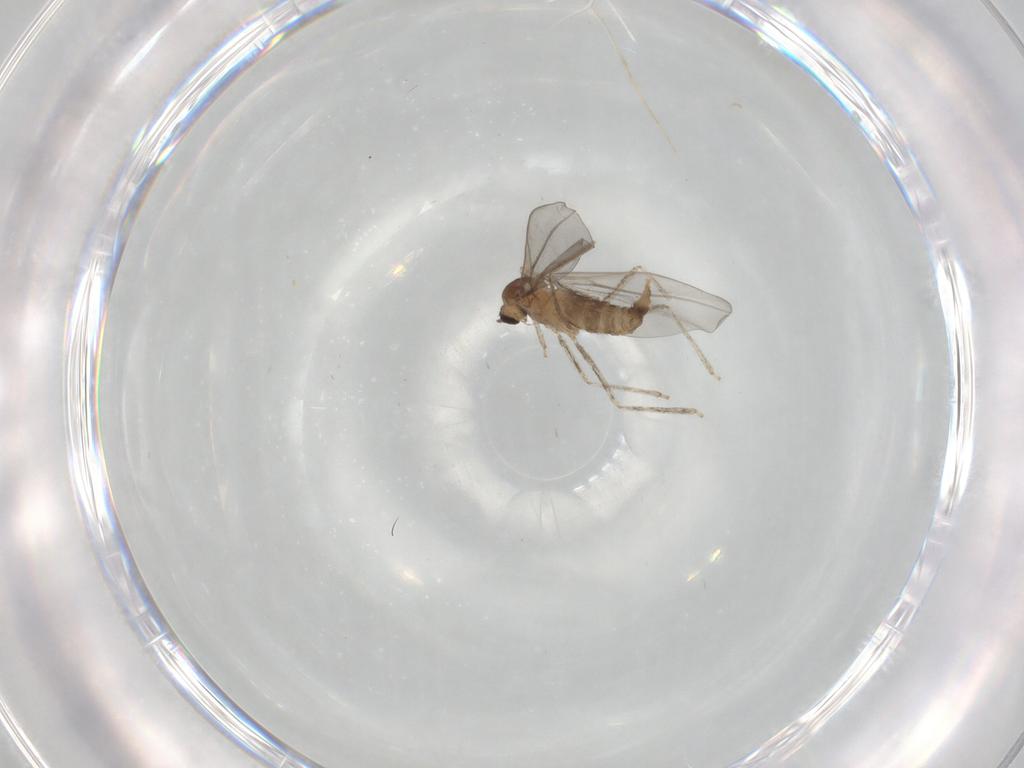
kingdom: Animalia
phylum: Arthropoda
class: Insecta
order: Diptera
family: Cecidomyiidae
